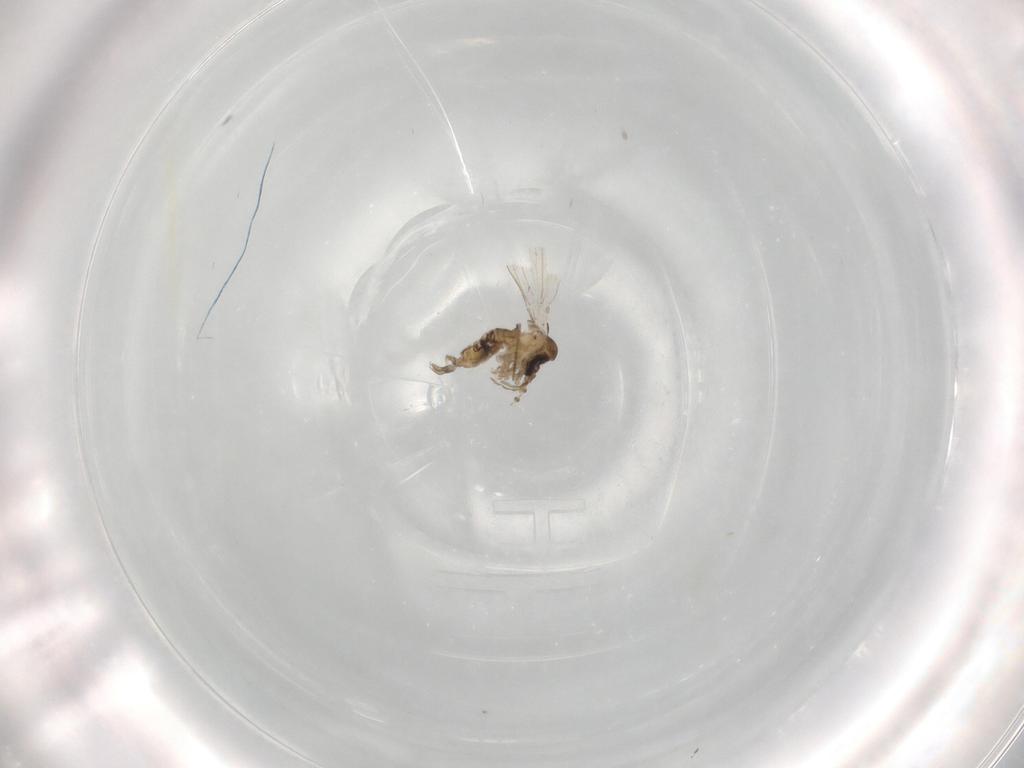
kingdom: Animalia
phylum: Arthropoda
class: Insecta
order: Diptera
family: Psychodidae
